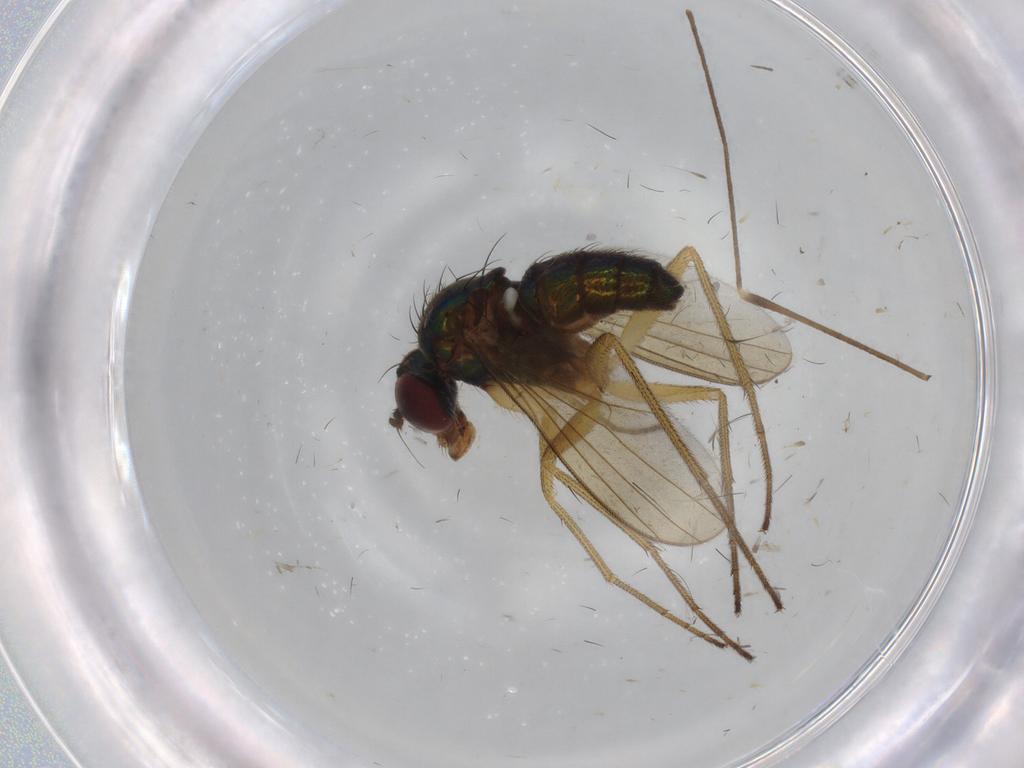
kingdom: Animalia
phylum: Arthropoda
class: Insecta
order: Diptera
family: Dolichopodidae
